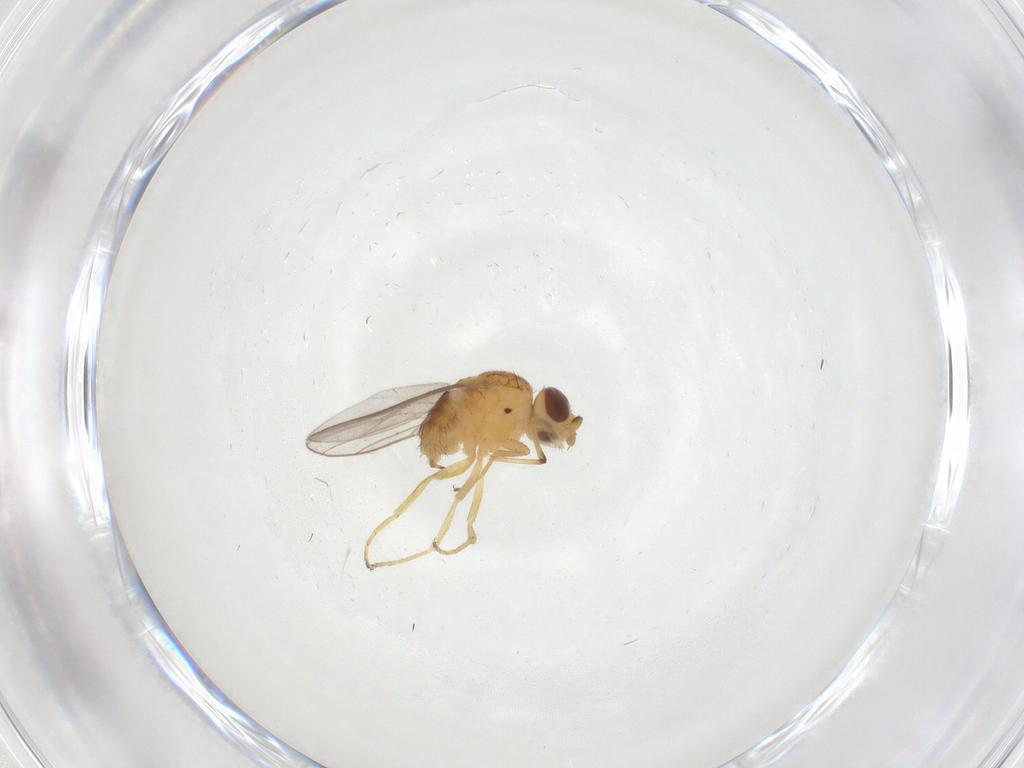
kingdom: Animalia
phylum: Arthropoda
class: Insecta
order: Diptera
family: Chloropidae
